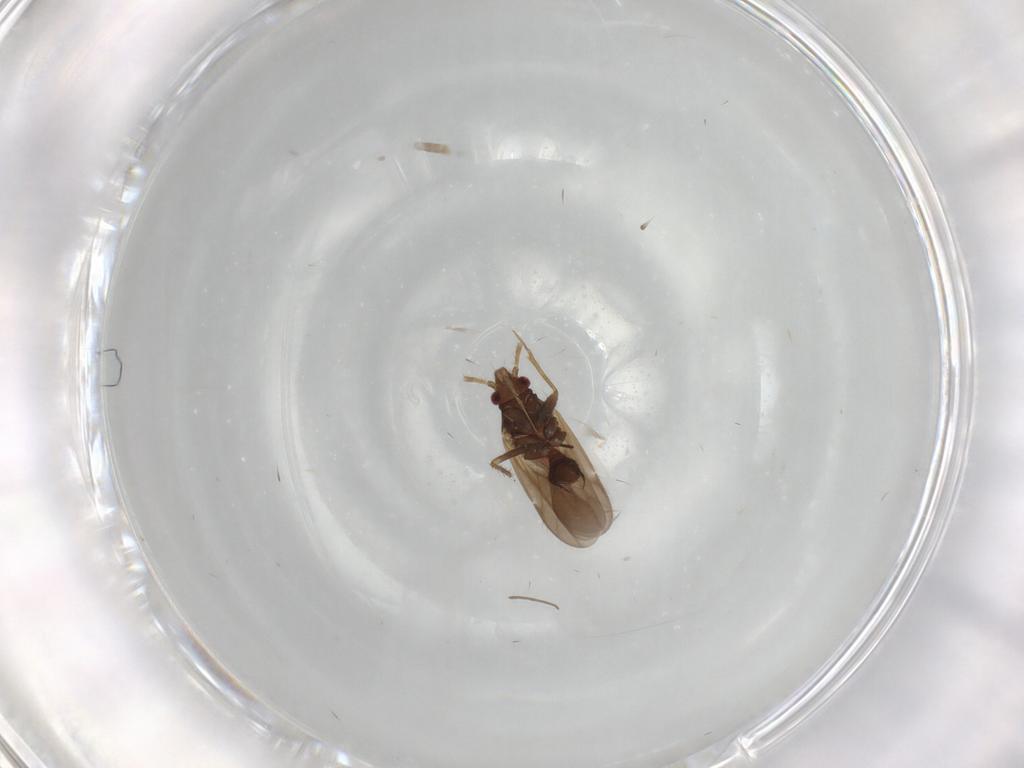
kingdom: Animalia
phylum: Arthropoda
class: Insecta
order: Hemiptera
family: Ceratocombidae
